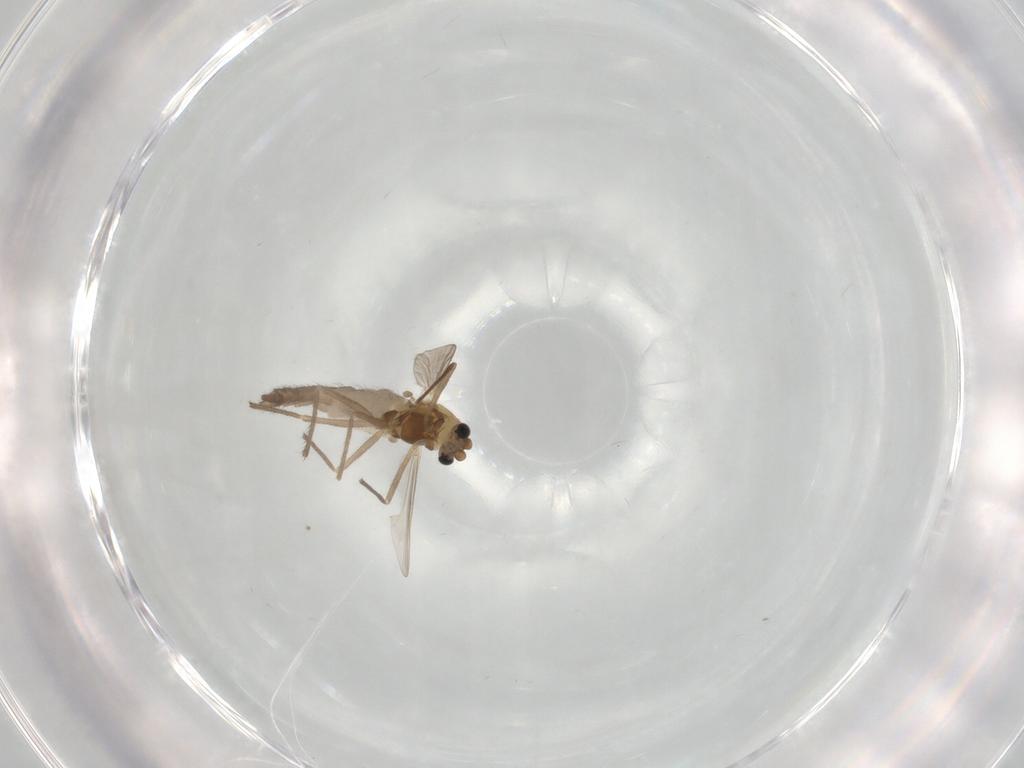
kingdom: Animalia
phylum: Arthropoda
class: Insecta
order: Diptera
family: Chironomidae
